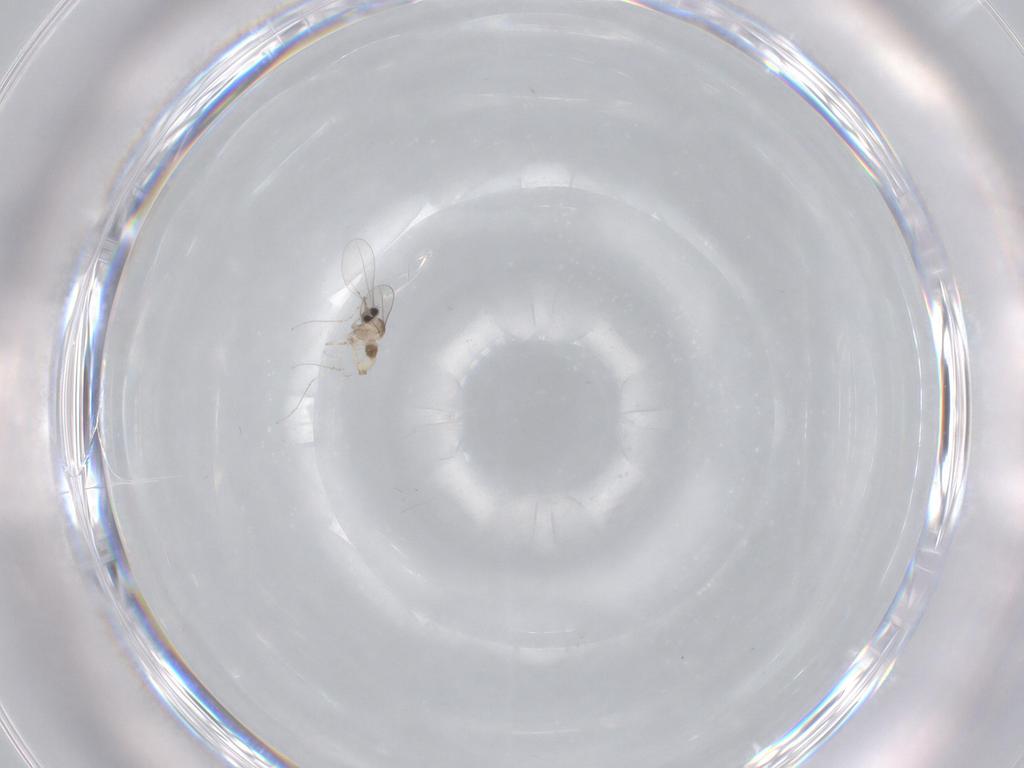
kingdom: Animalia
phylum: Arthropoda
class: Insecta
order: Diptera
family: Cecidomyiidae
